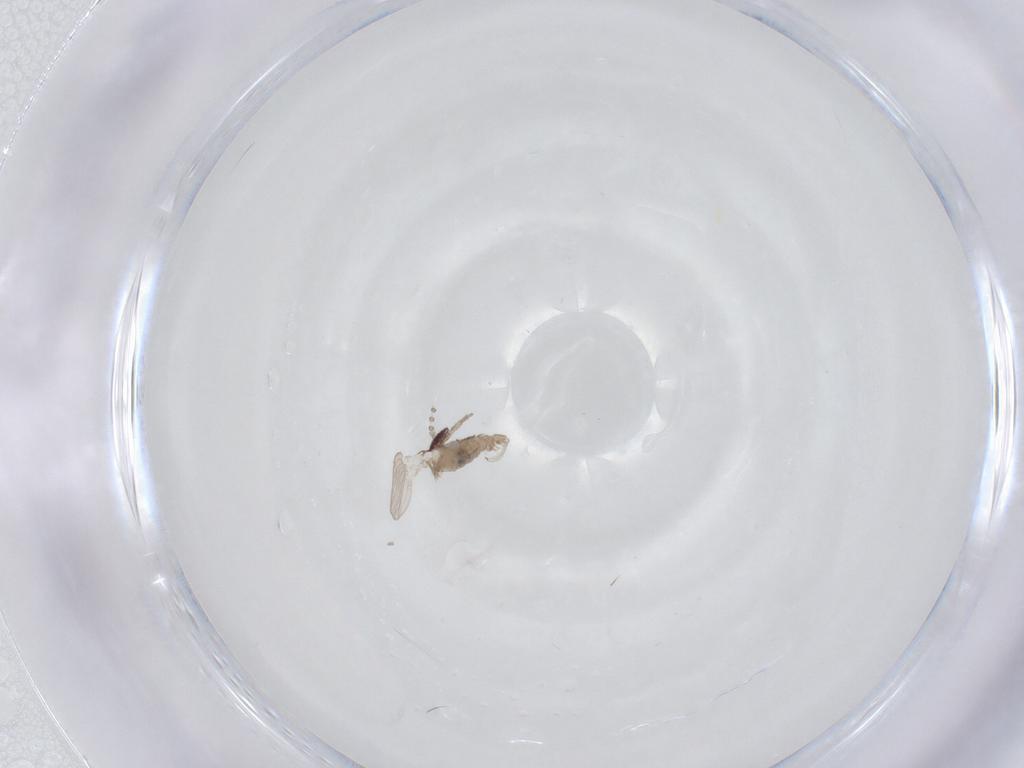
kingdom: Animalia
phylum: Arthropoda
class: Insecta
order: Diptera
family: Psychodidae
